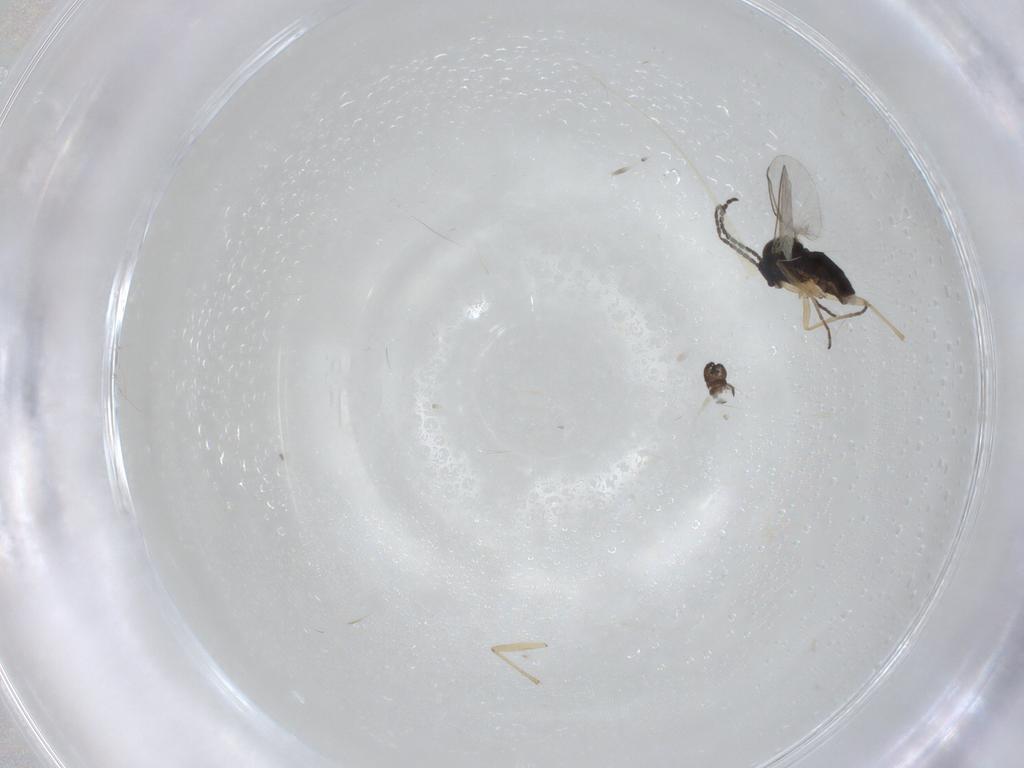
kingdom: Animalia
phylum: Arthropoda
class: Insecta
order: Diptera
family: Sciaridae
